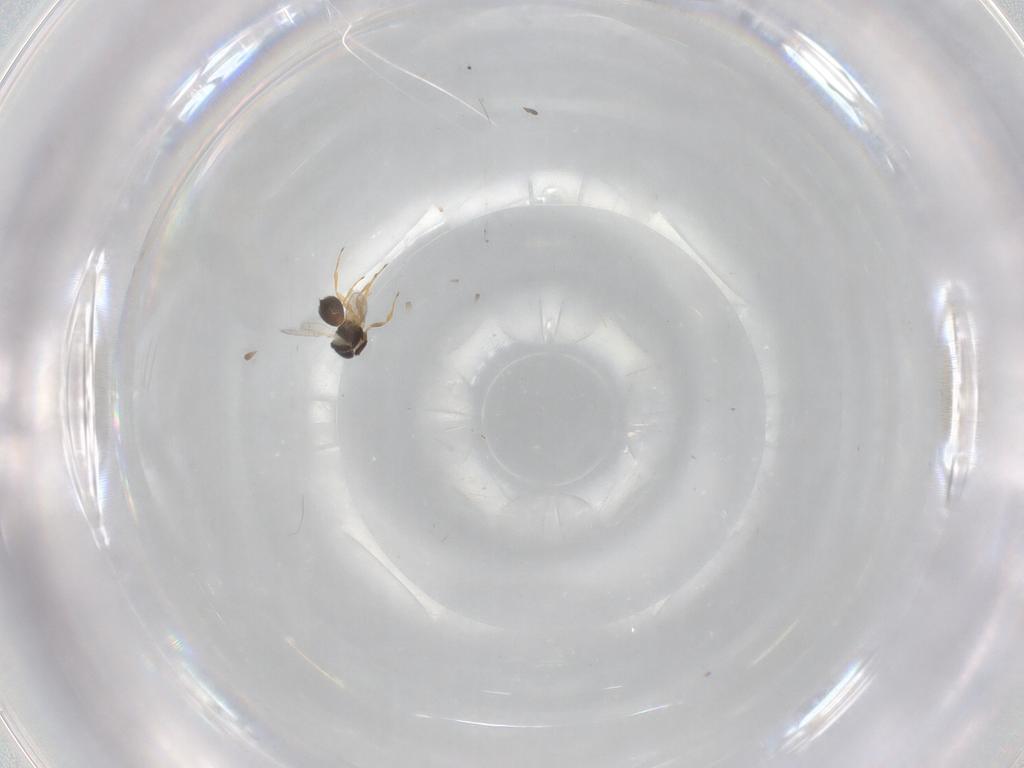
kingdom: Animalia
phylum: Arthropoda
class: Insecta
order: Hymenoptera
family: Scelionidae
